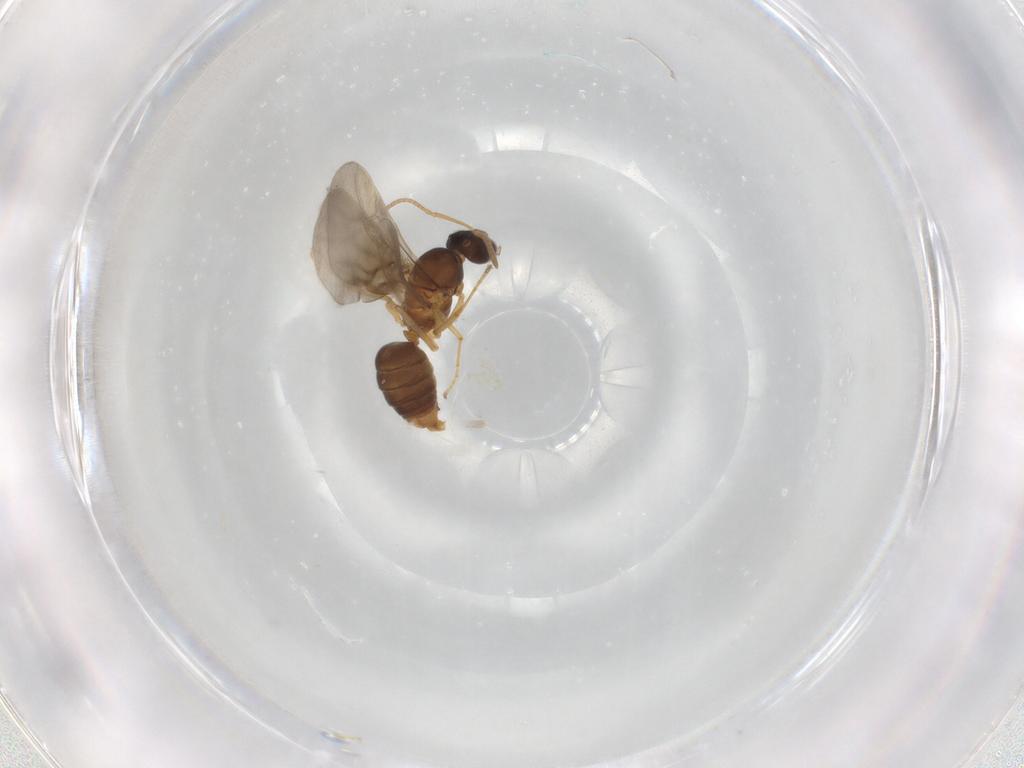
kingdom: Animalia
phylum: Arthropoda
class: Insecta
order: Hymenoptera
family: Formicidae
